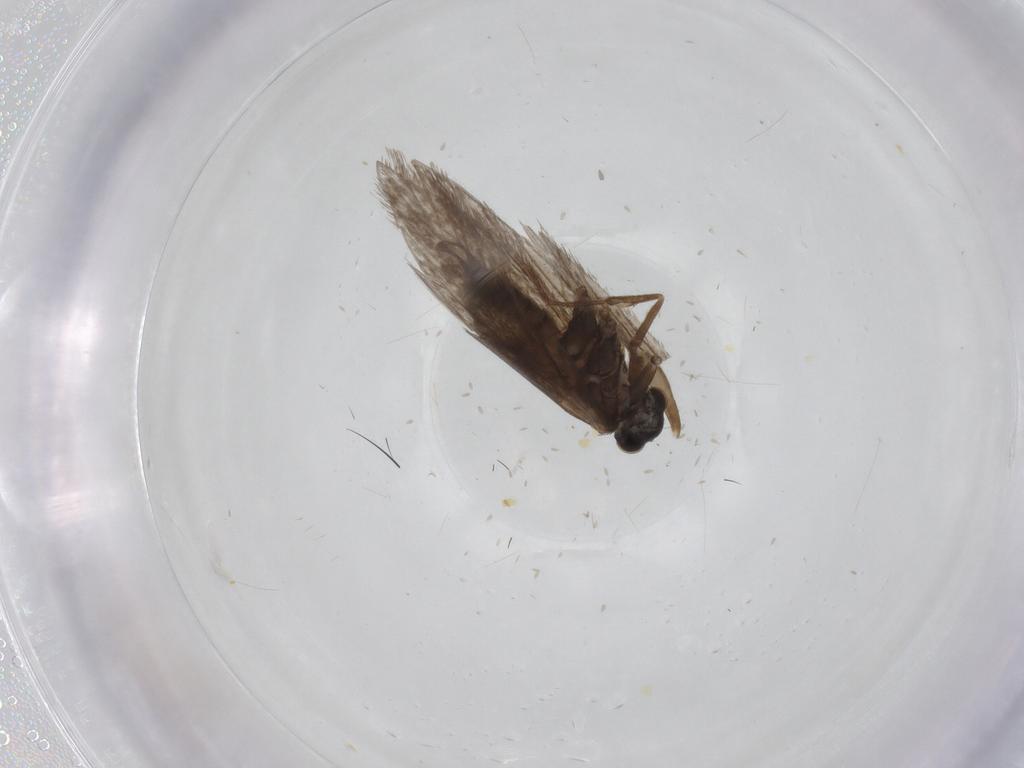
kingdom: Animalia
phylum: Arthropoda
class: Insecta
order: Lepidoptera
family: Micropterigidae
